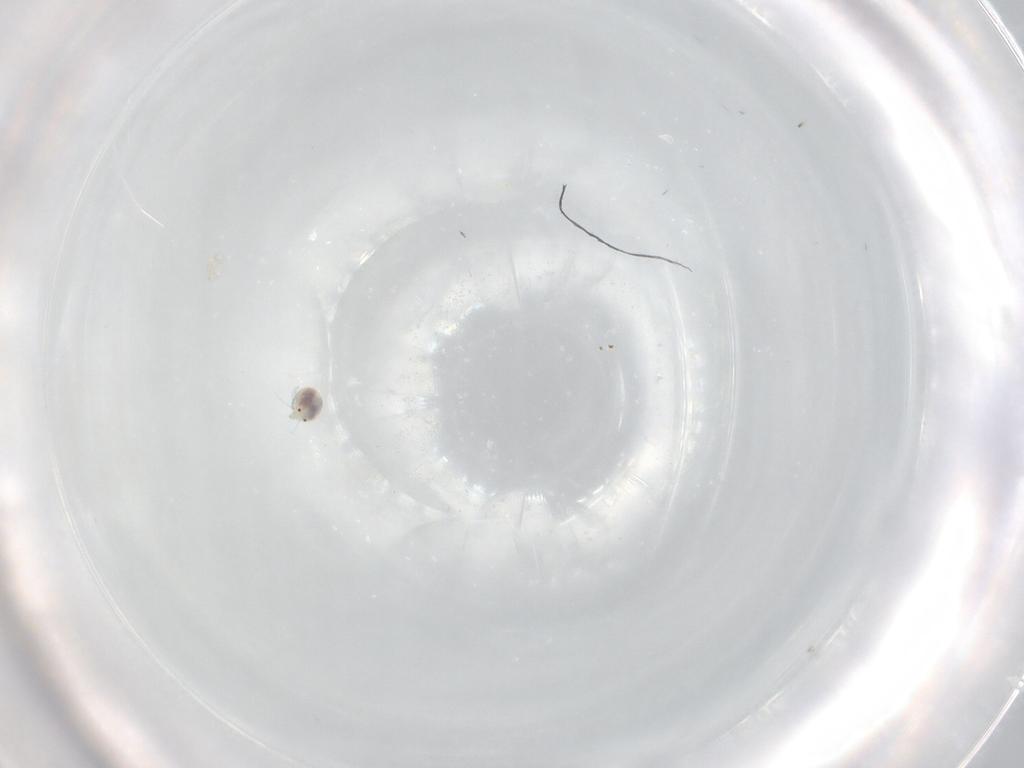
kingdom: Animalia
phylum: Arthropoda
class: Arachnida
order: Trombidiformes
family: Unionicolidae
